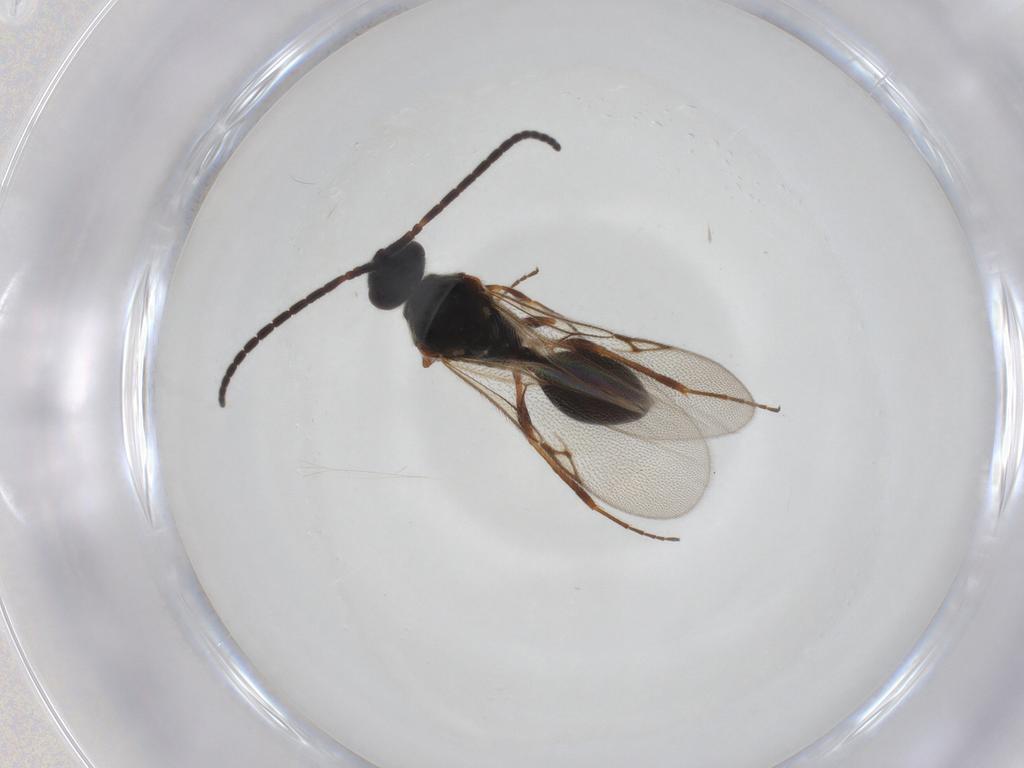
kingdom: Animalia
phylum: Arthropoda
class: Insecta
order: Hymenoptera
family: Diapriidae
